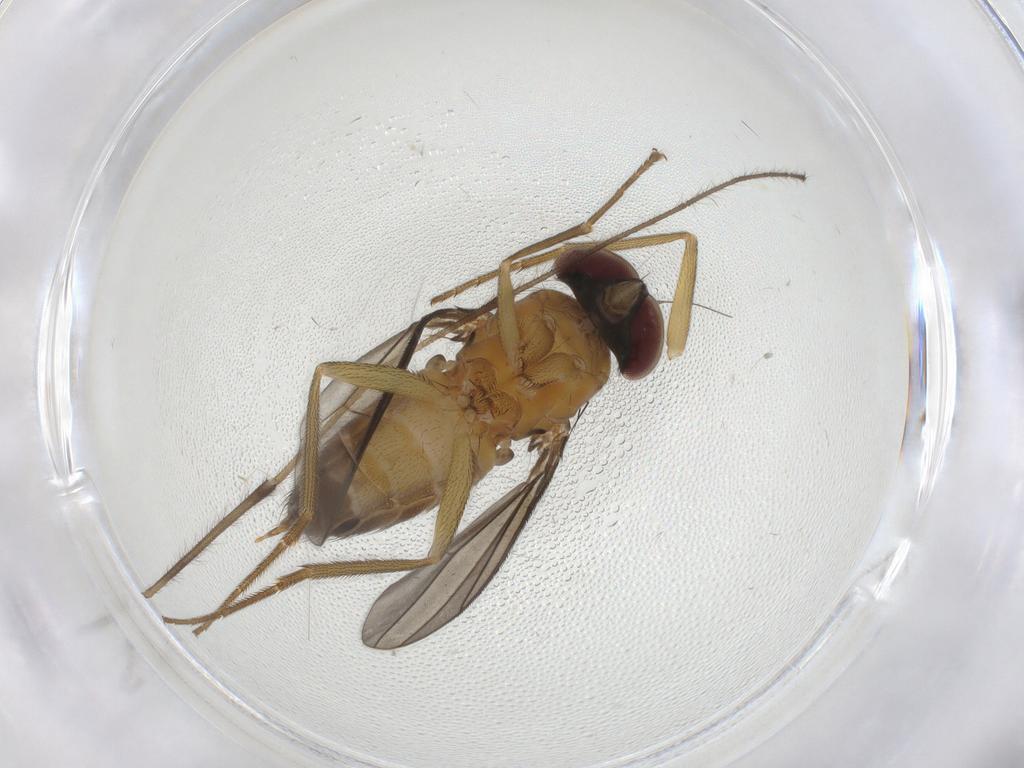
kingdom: Animalia
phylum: Arthropoda
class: Insecta
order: Diptera
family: Dolichopodidae
